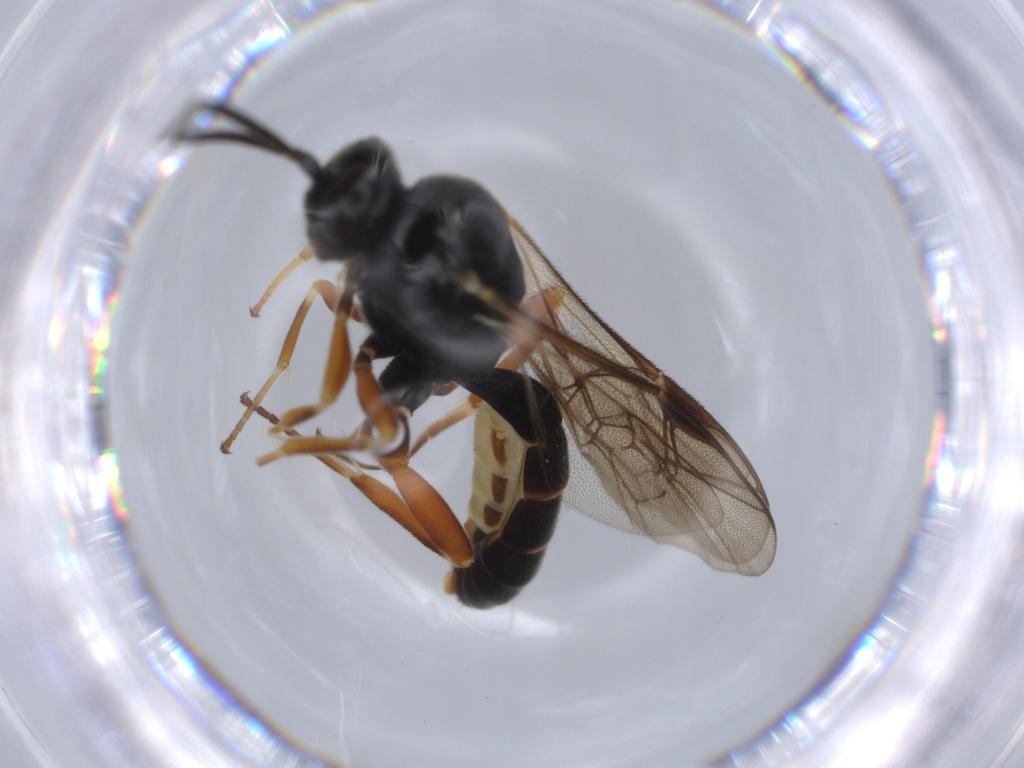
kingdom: Animalia
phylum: Arthropoda
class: Insecta
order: Hymenoptera
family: Ichneumonidae
